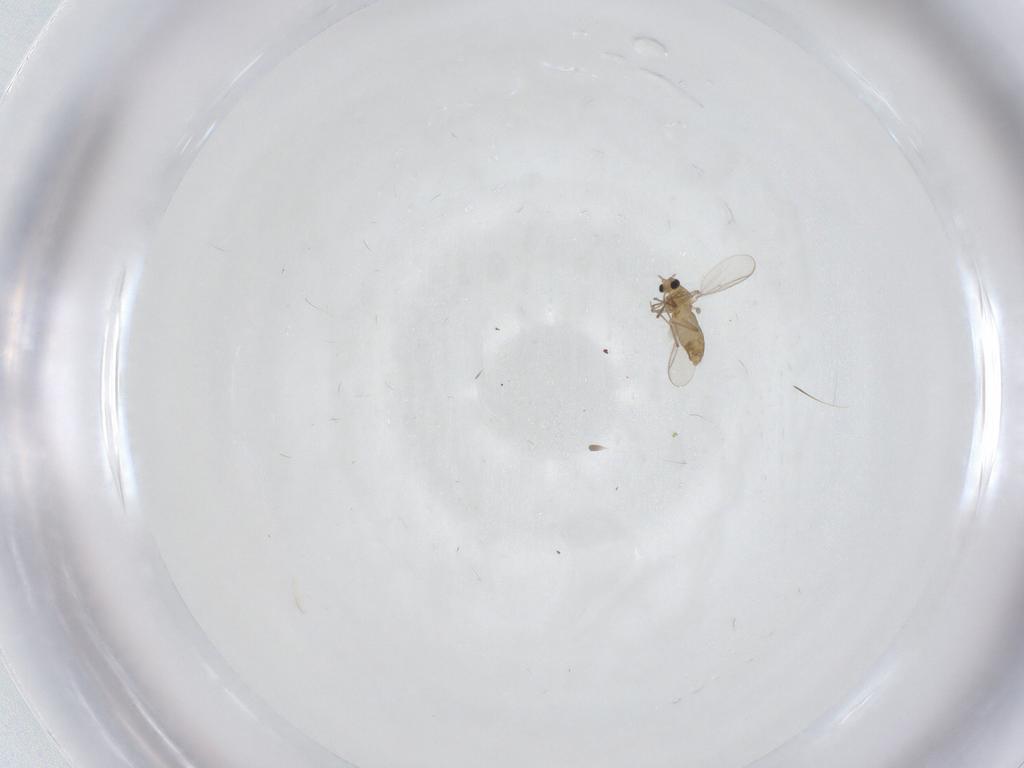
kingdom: Animalia
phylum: Arthropoda
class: Insecta
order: Diptera
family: Chironomidae
